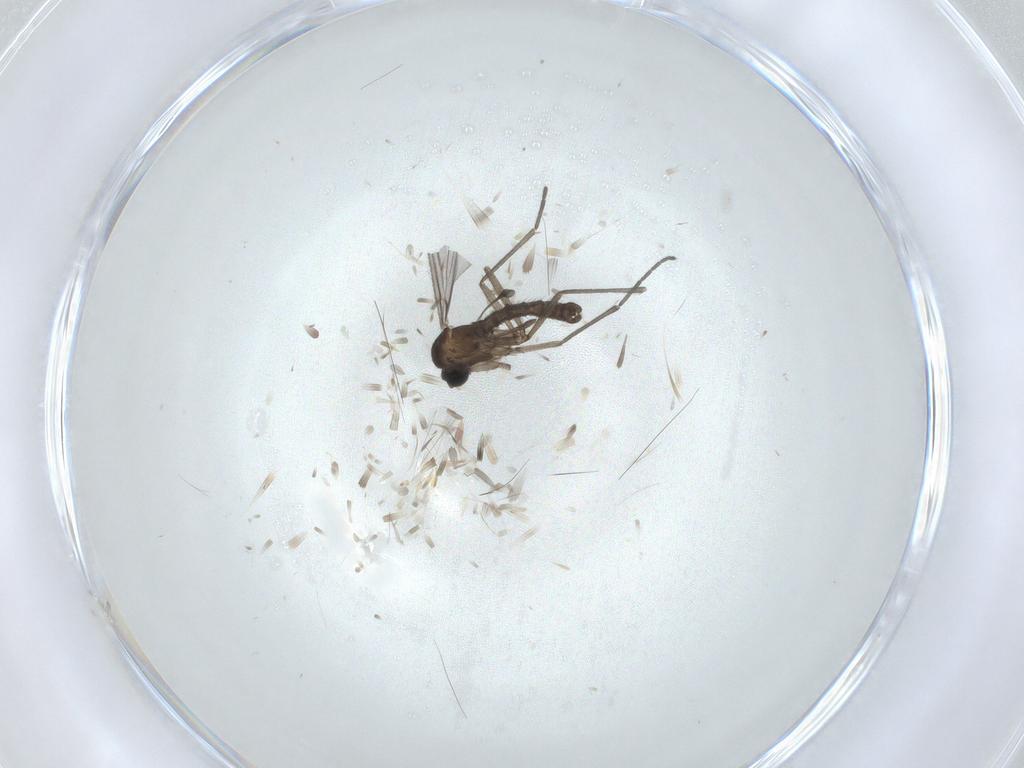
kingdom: Animalia
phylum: Arthropoda
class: Insecta
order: Diptera
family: Sciaridae
